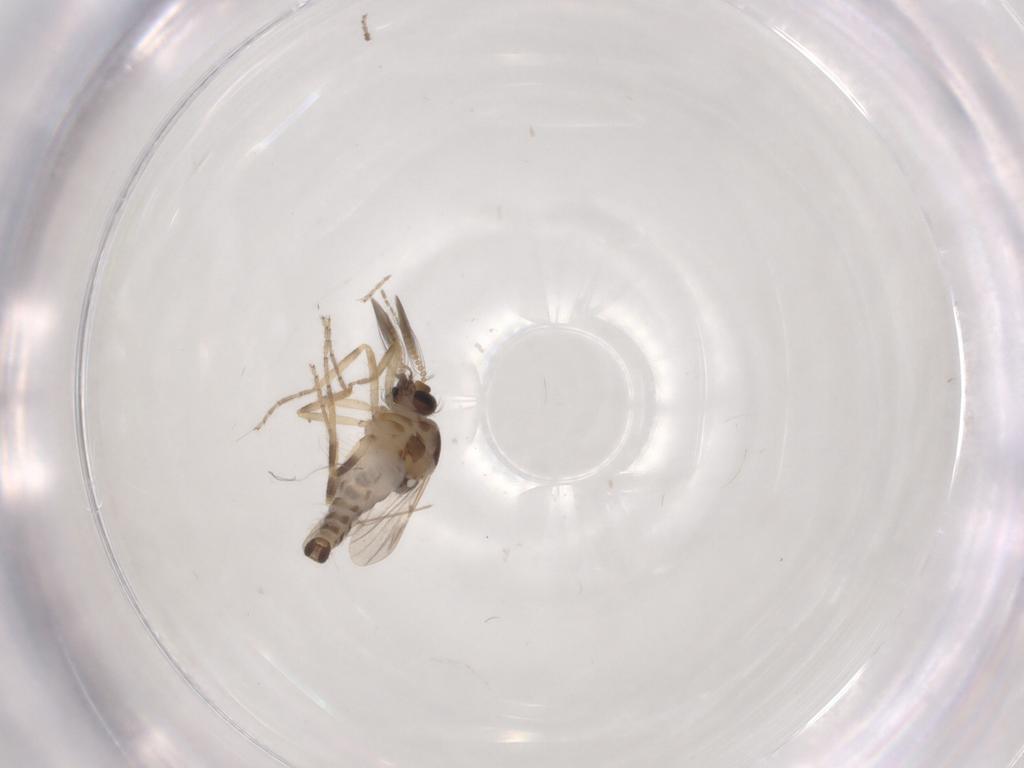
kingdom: Animalia
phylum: Arthropoda
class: Insecta
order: Diptera
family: Ceratopogonidae
